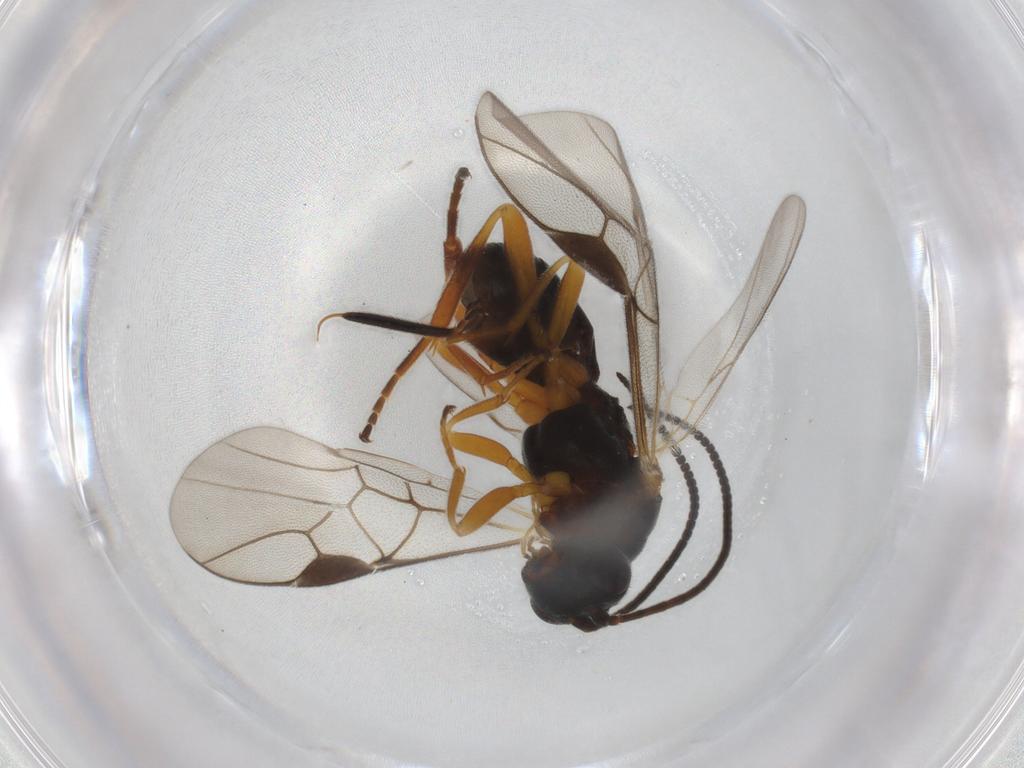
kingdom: Animalia
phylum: Arthropoda
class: Insecta
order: Hymenoptera
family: Braconidae
